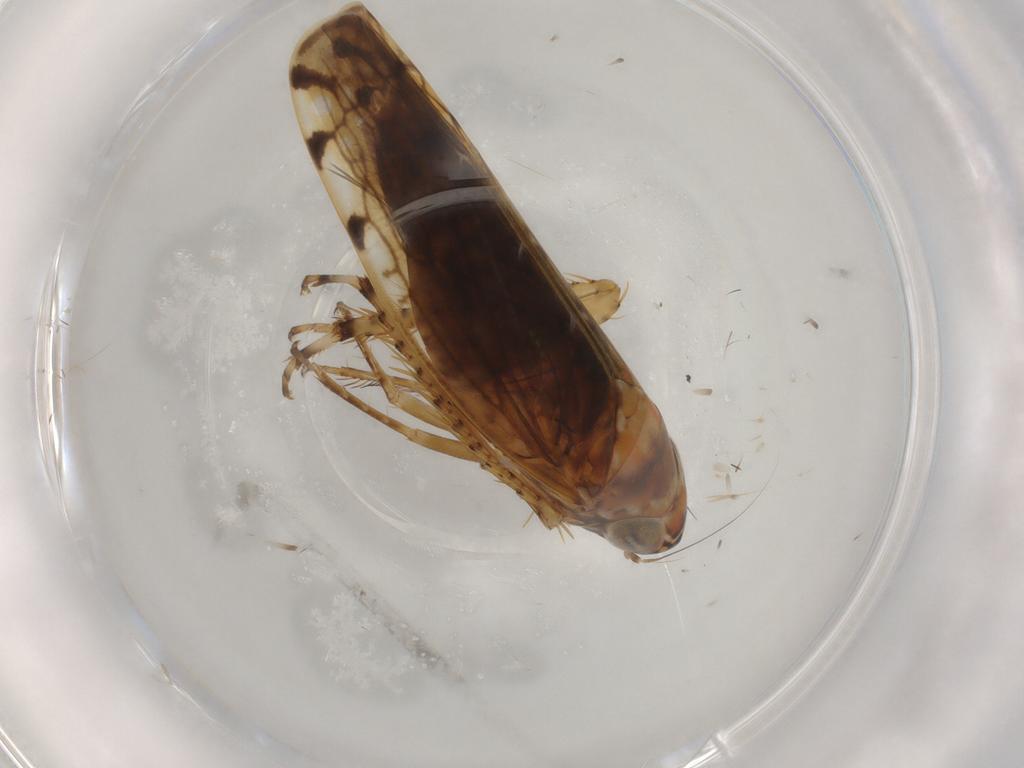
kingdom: Animalia
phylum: Arthropoda
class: Insecta
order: Hemiptera
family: Cicadellidae
